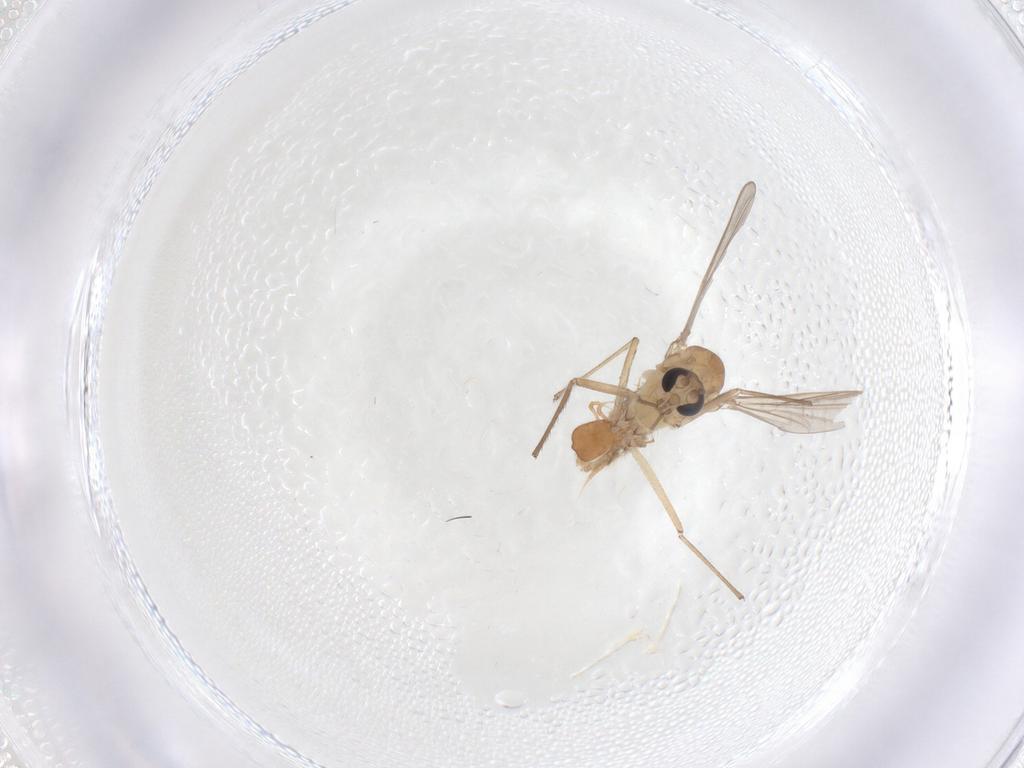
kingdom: Animalia
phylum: Arthropoda
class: Insecta
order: Diptera
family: Chironomidae
